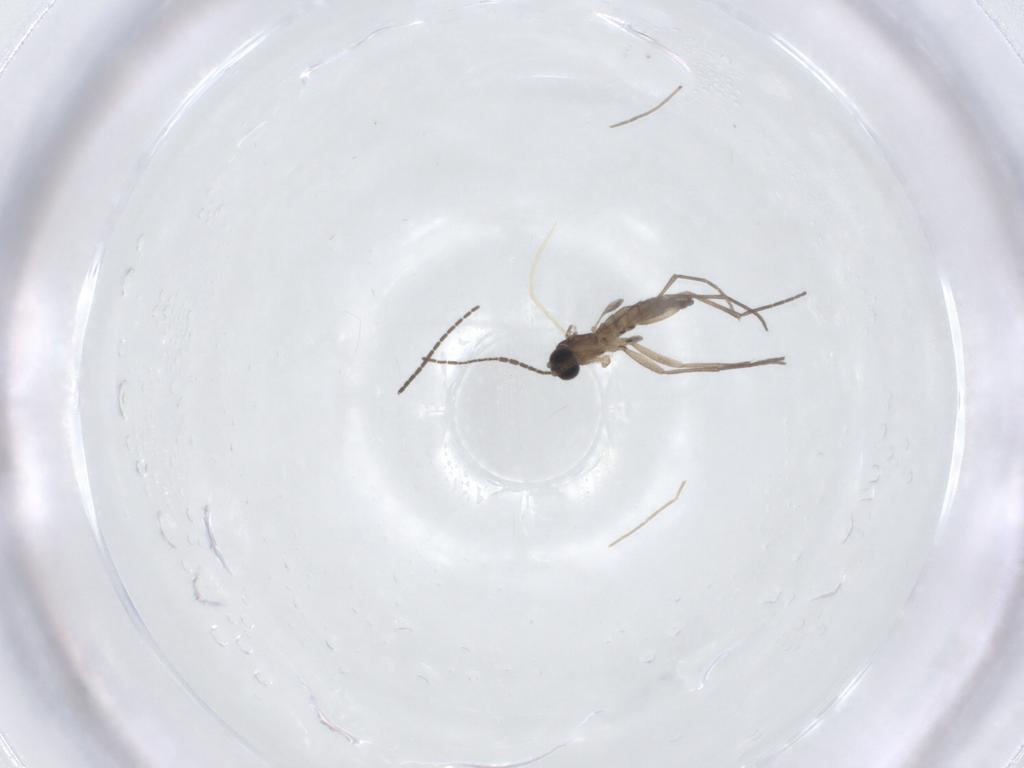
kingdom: Animalia
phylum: Arthropoda
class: Insecta
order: Diptera
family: Sciaridae
